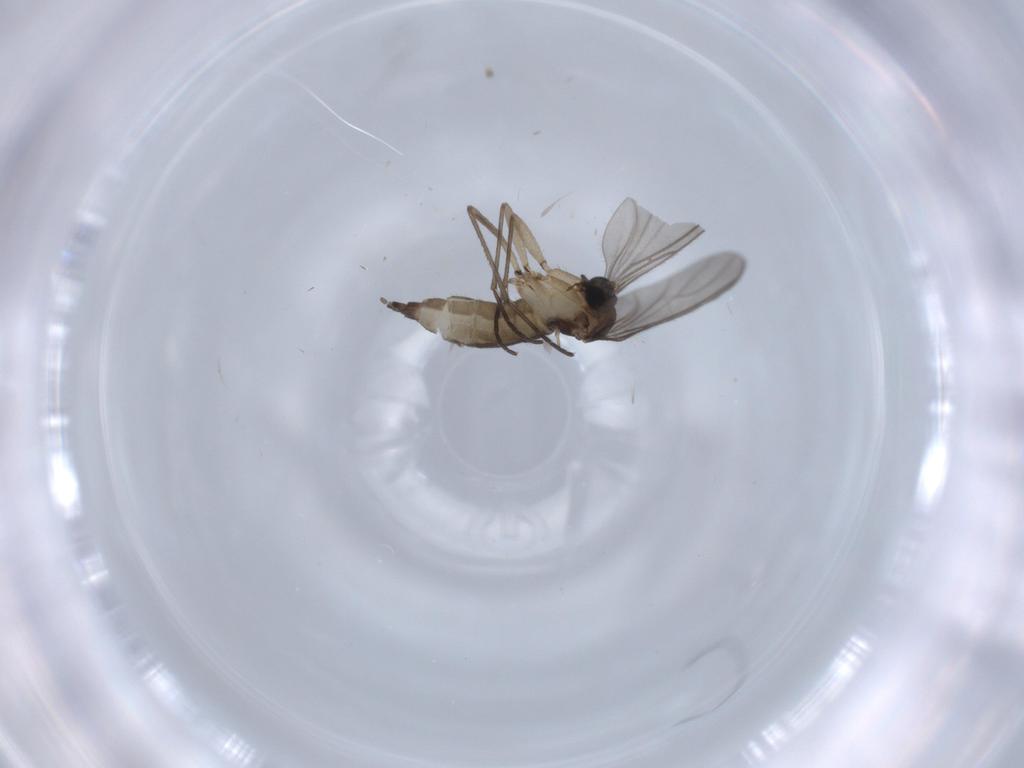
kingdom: Animalia
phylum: Arthropoda
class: Insecta
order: Diptera
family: Sciaridae
